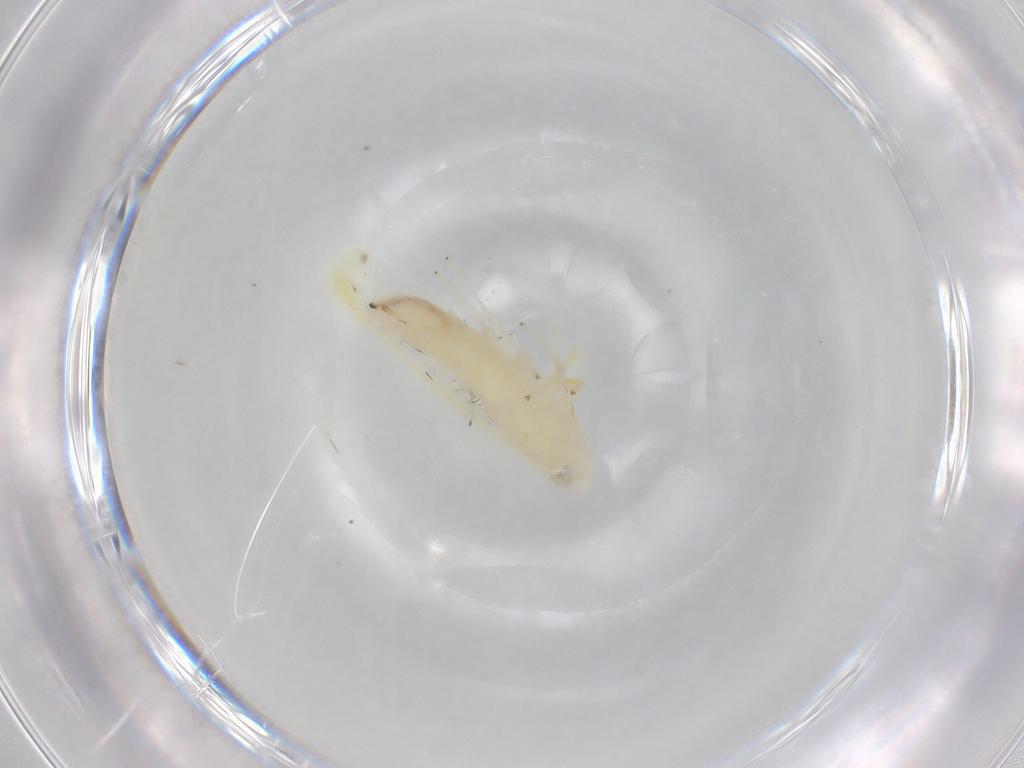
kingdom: Animalia
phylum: Arthropoda
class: Insecta
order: Hemiptera
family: Cicadellidae
